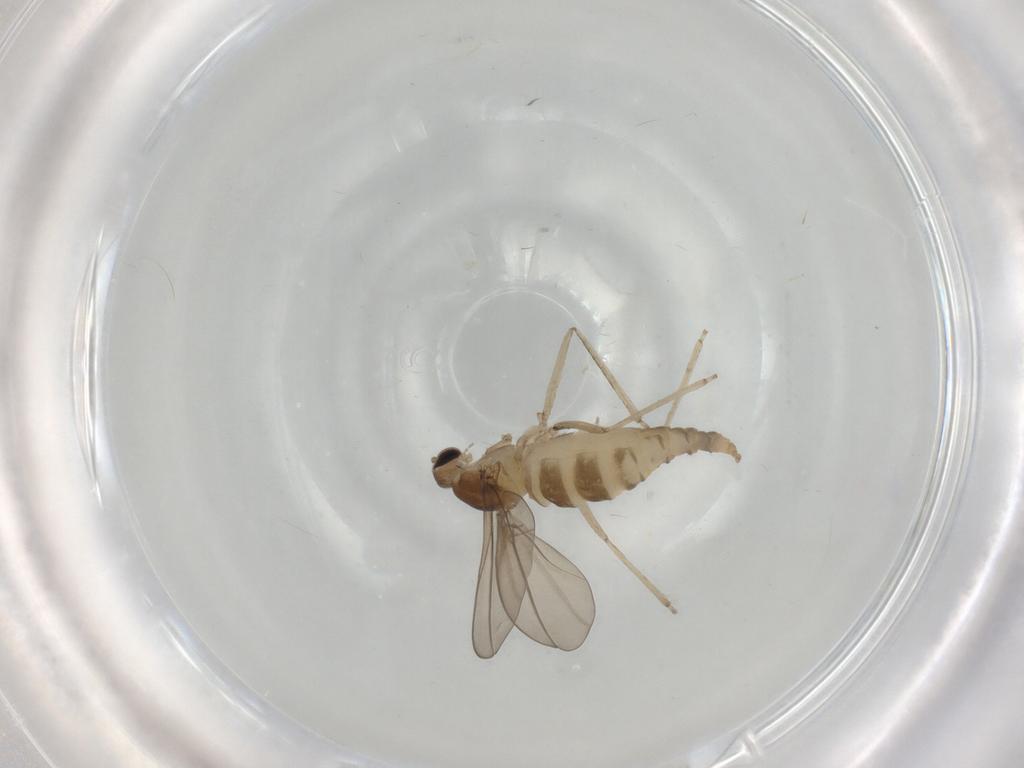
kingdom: Animalia
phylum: Arthropoda
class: Insecta
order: Diptera
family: Cecidomyiidae
